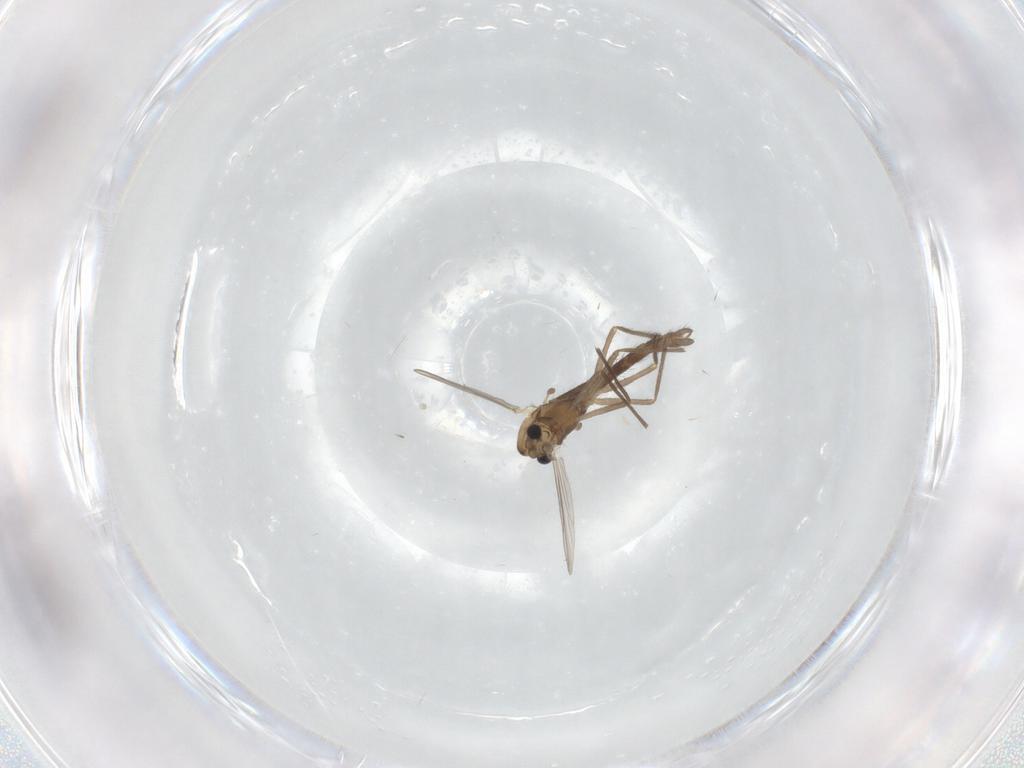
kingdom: Animalia
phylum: Arthropoda
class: Insecta
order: Diptera
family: Chironomidae
